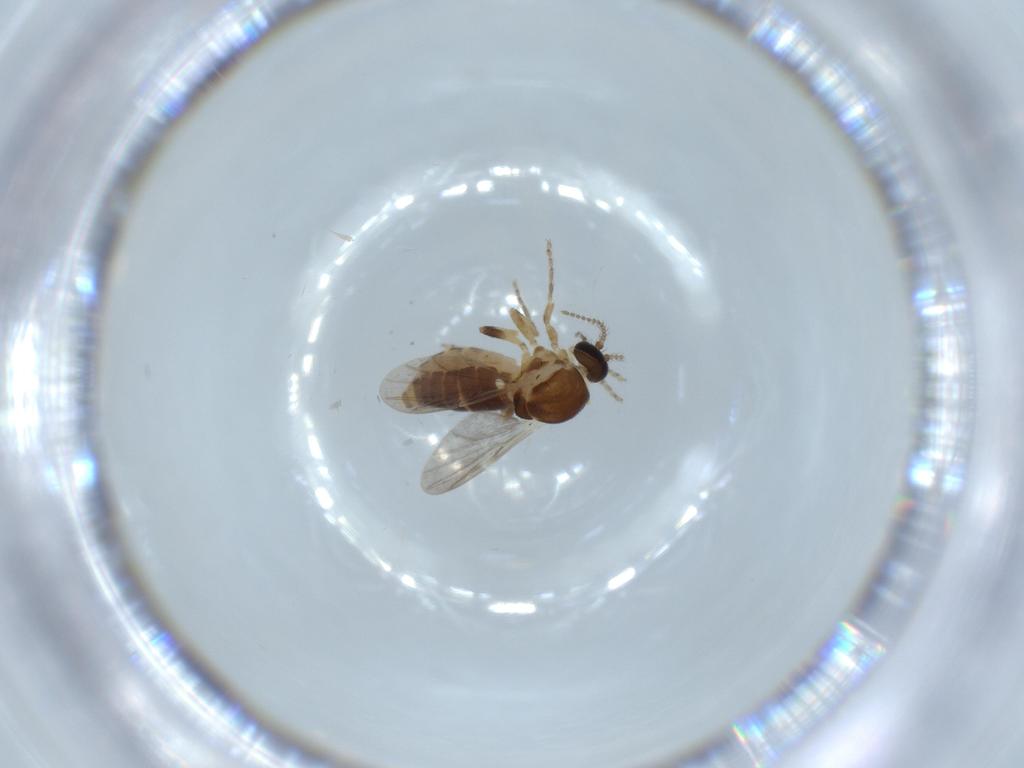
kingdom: Animalia
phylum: Arthropoda
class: Insecta
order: Diptera
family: Ceratopogonidae
